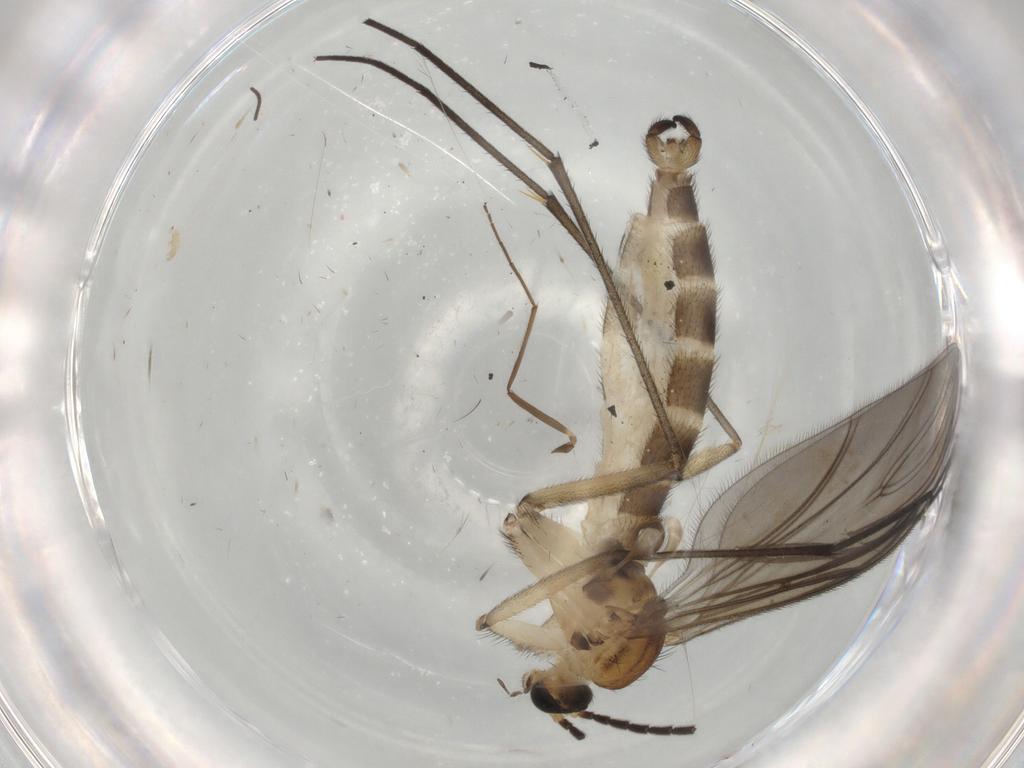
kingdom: Animalia
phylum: Arthropoda
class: Insecta
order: Diptera
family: Sciaridae
